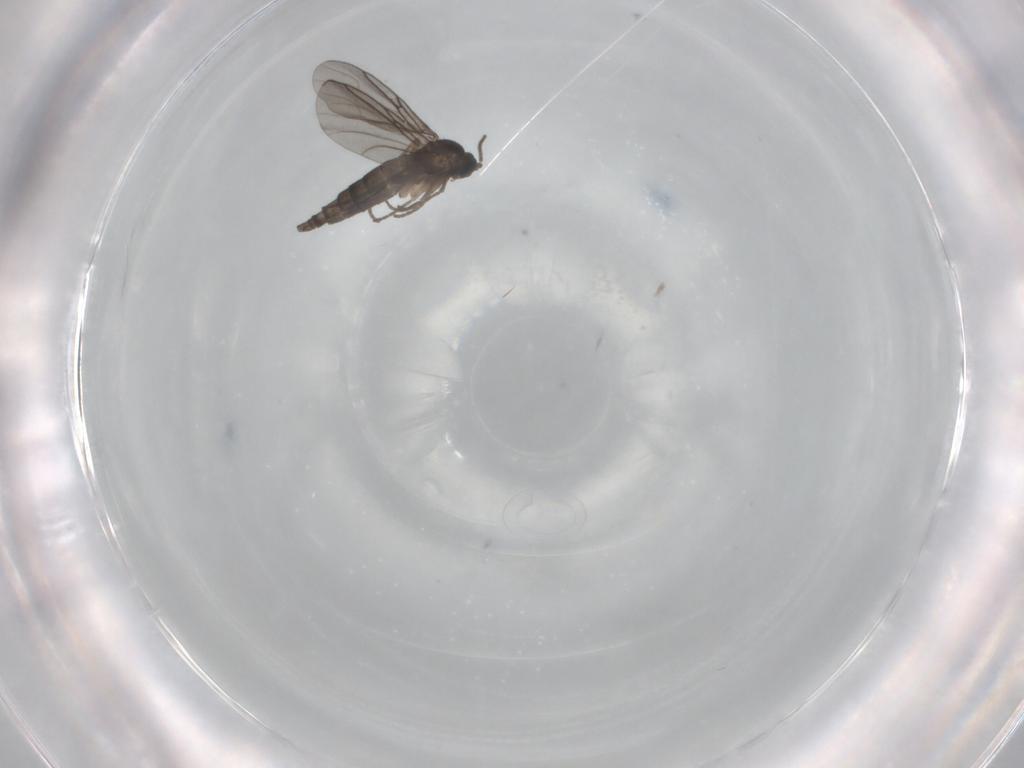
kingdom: Animalia
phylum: Arthropoda
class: Insecta
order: Diptera
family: Sciaridae
